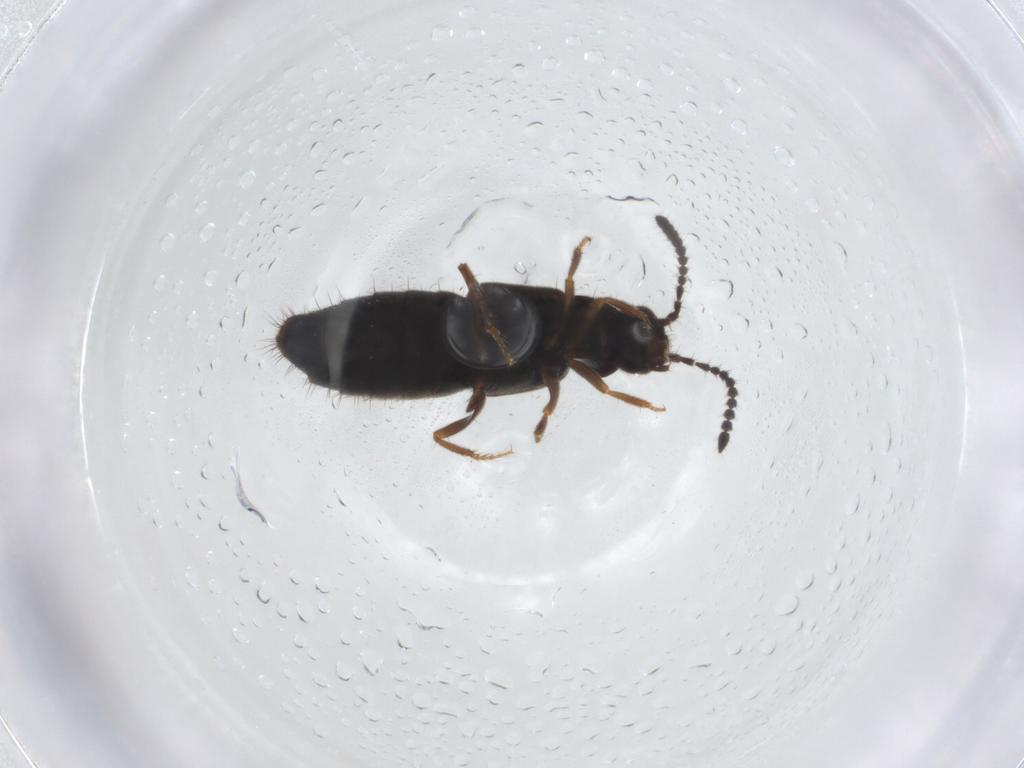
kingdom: Animalia
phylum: Arthropoda
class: Insecta
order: Coleoptera
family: Staphylinidae
